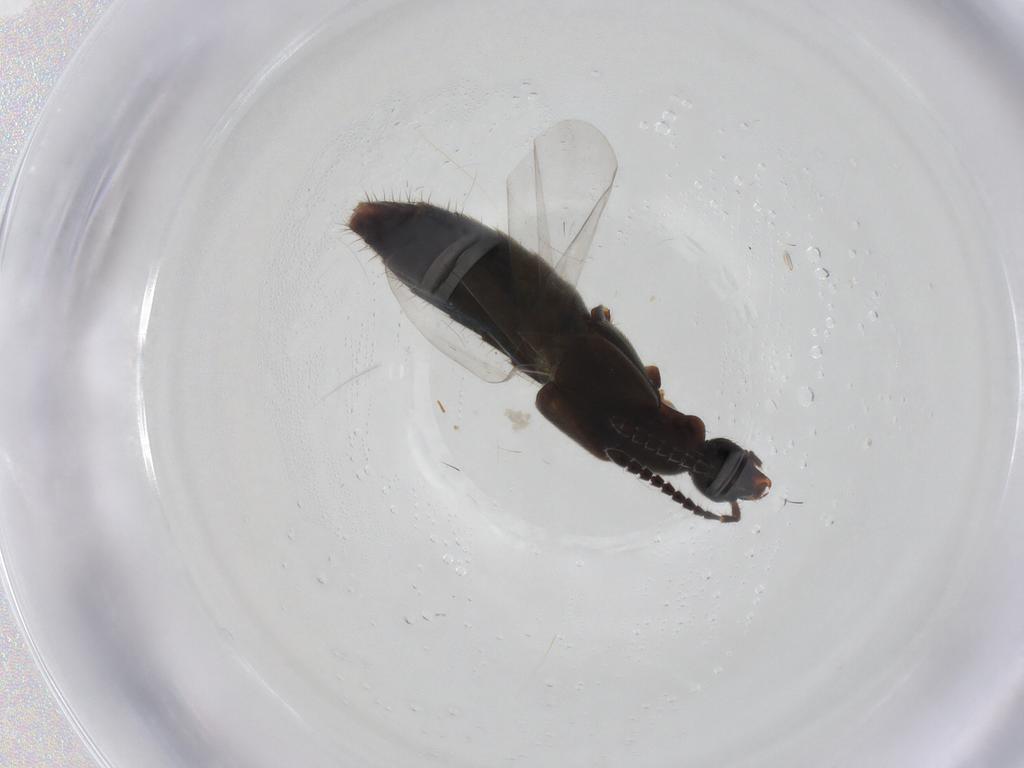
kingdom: Animalia
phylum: Arthropoda
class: Insecta
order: Coleoptera
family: Staphylinidae
